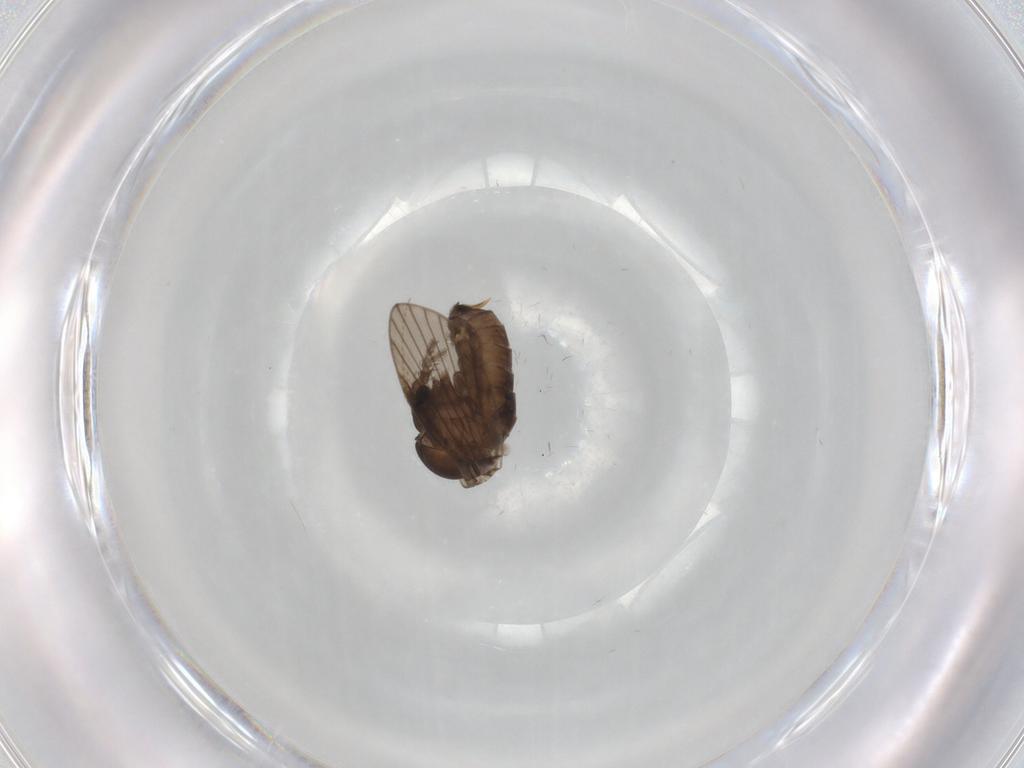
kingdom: Animalia
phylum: Arthropoda
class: Insecta
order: Diptera
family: Psychodidae
